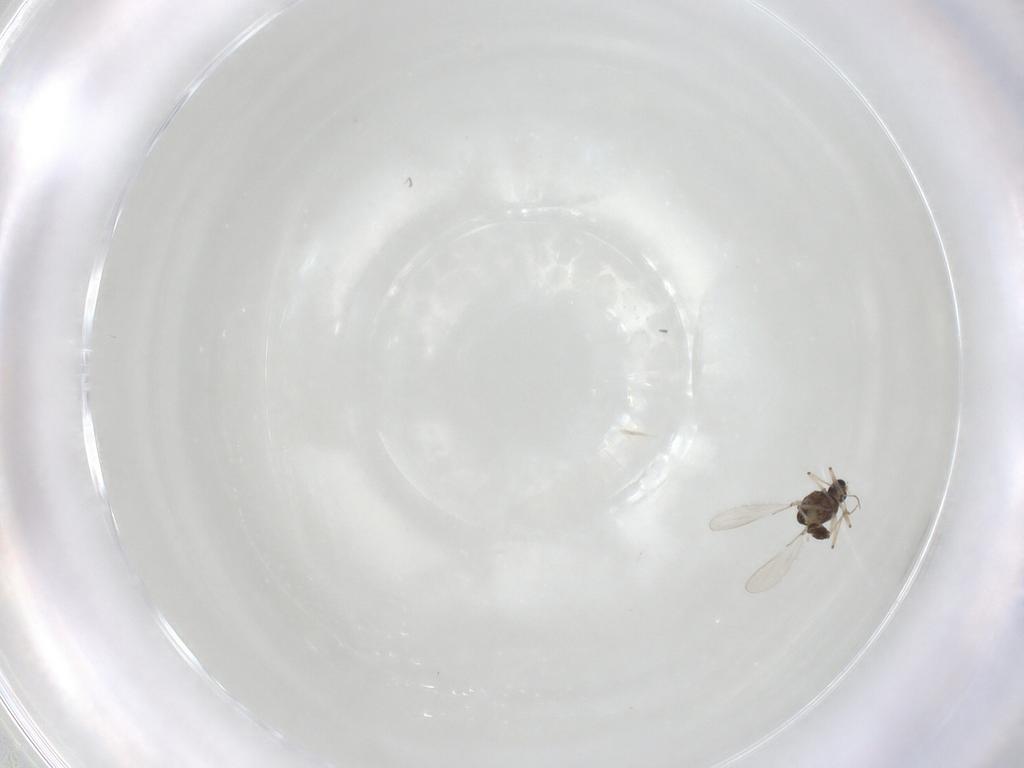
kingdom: Animalia
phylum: Arthropoda
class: Insecta
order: Diptera
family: Chironomidae
